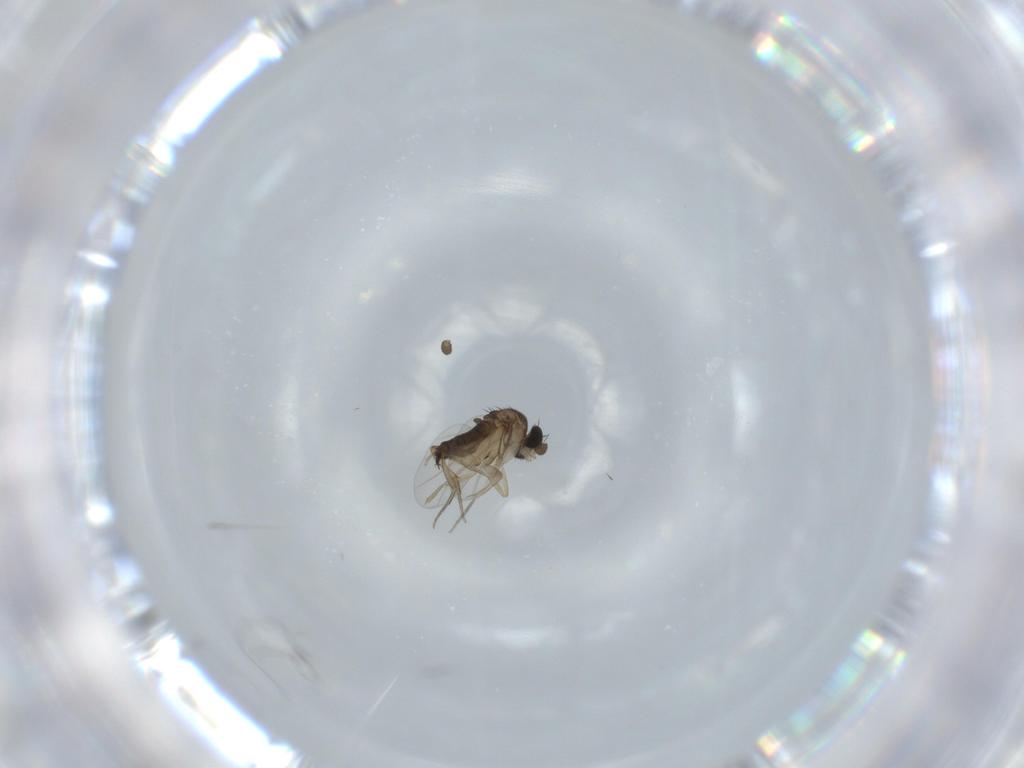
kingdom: Animalia
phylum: Arthropoda
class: Insecta
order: Diptera
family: Phoridae
